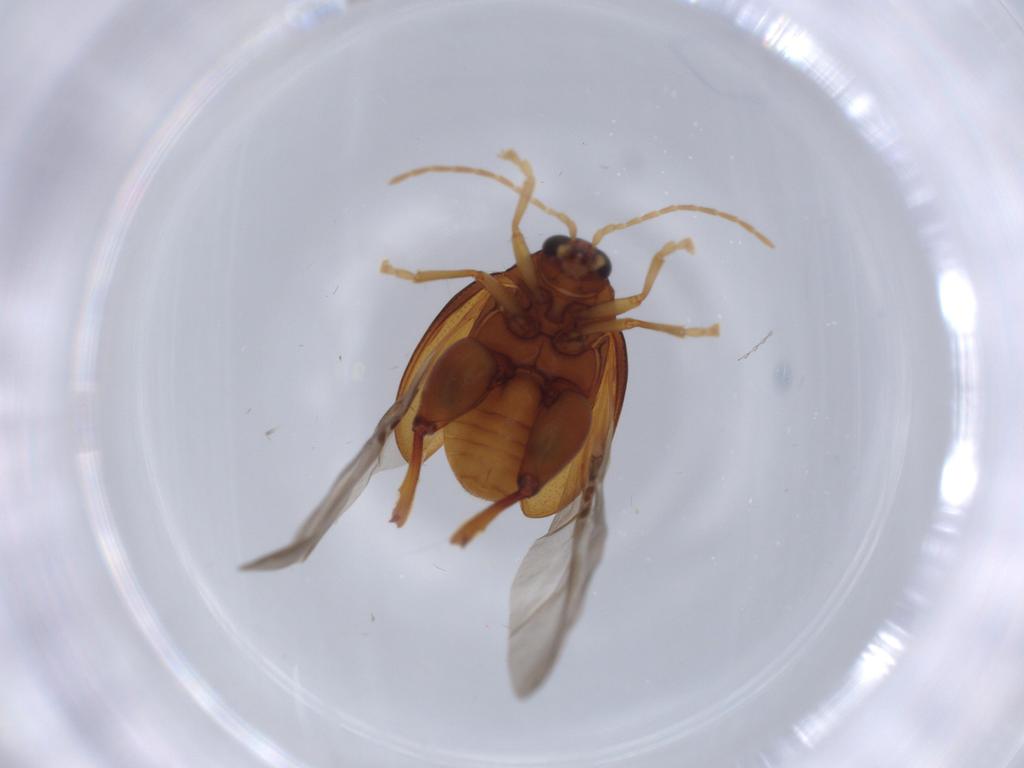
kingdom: Animalia
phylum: Arthropoda
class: Insecta
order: Coleoptera
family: Chrysomelidae
